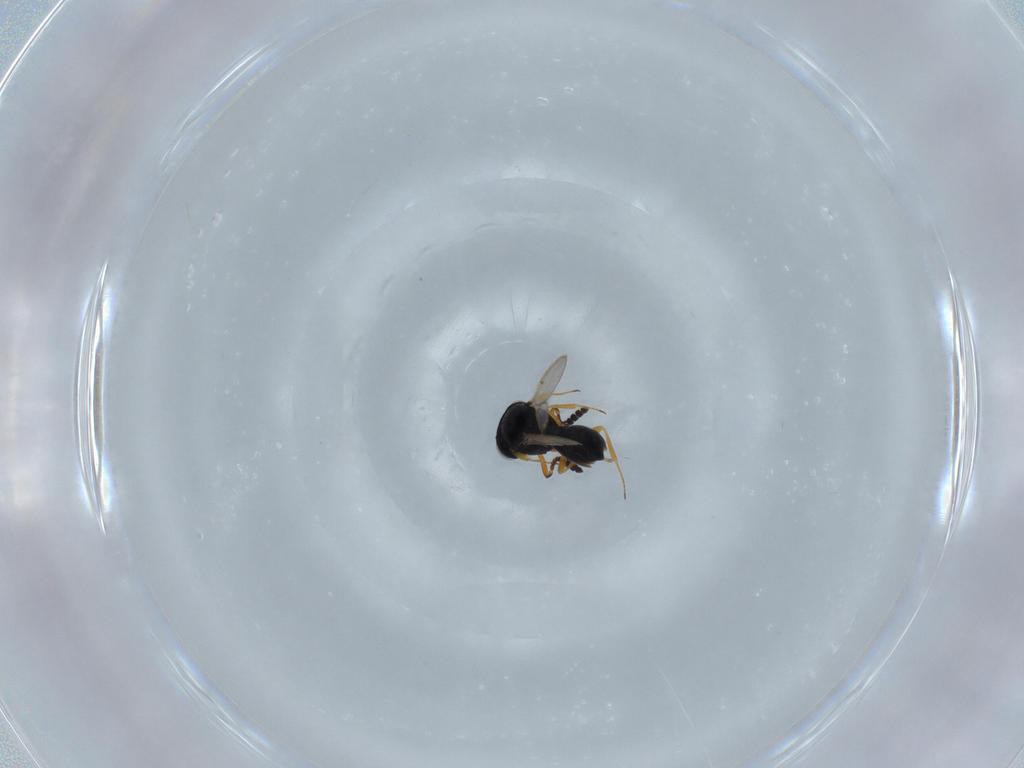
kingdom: Animalia
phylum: Arthropoda
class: Insecta
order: Hymenoptera
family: Scelionidae
